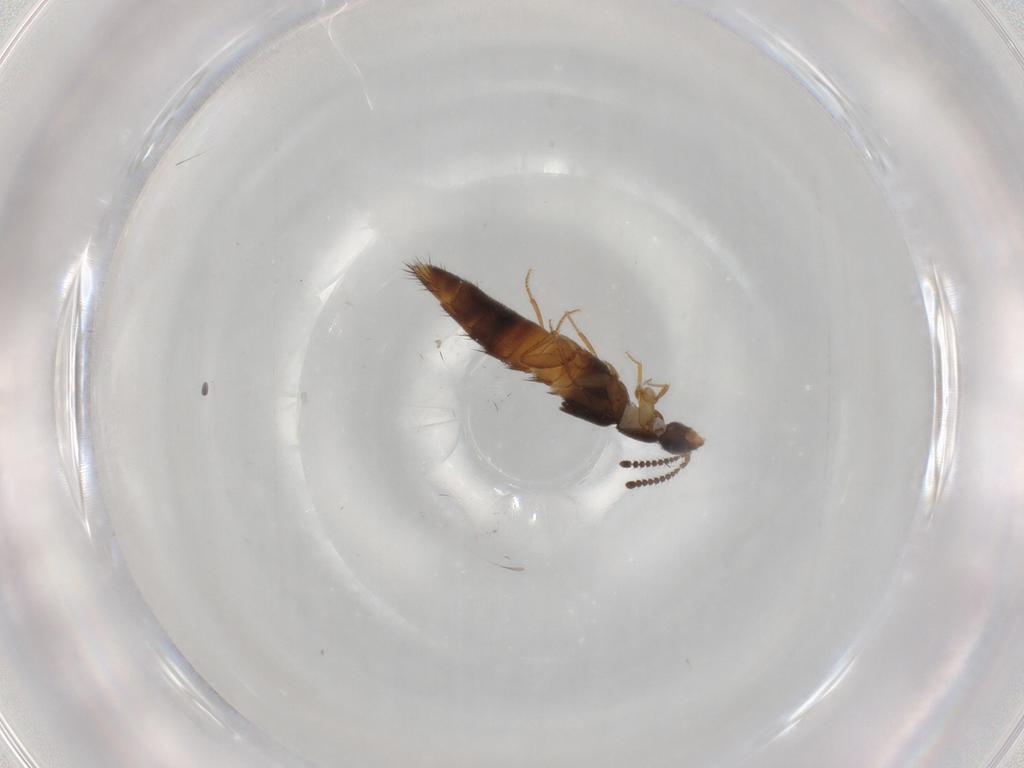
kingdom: Animalia
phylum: Arthropoda
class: Insecta
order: Coleoptera
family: Staphylinidae
